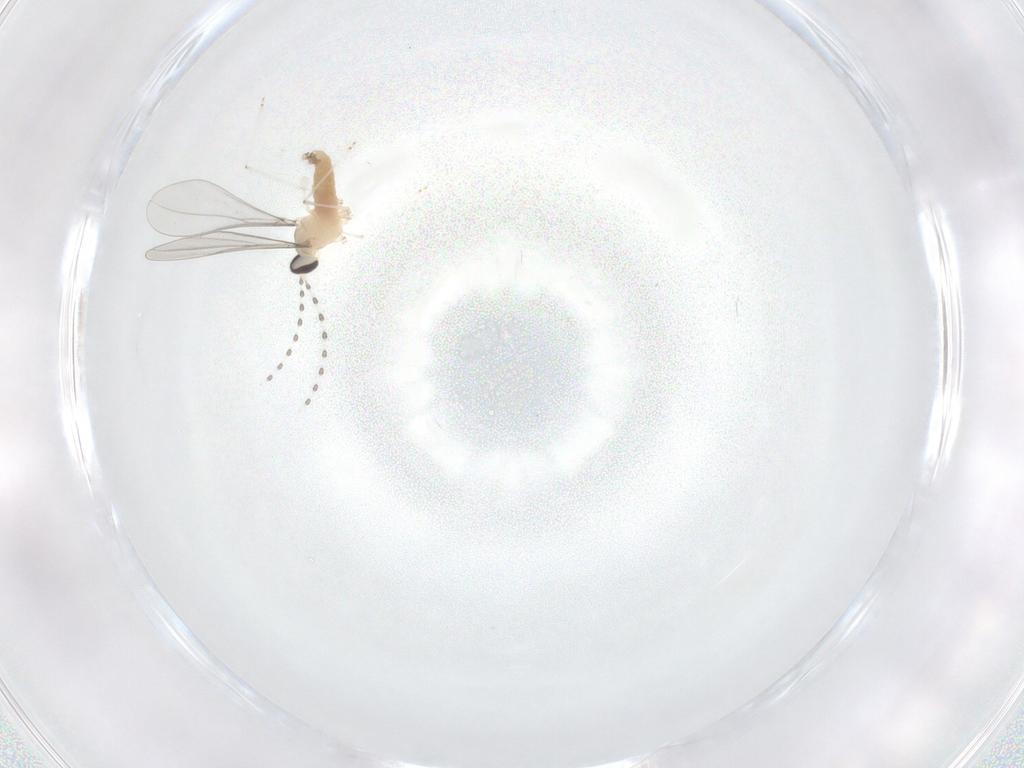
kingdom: Animalia
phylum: Arthropoda
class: Insecta
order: Diptera
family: Cecidomyiidae
